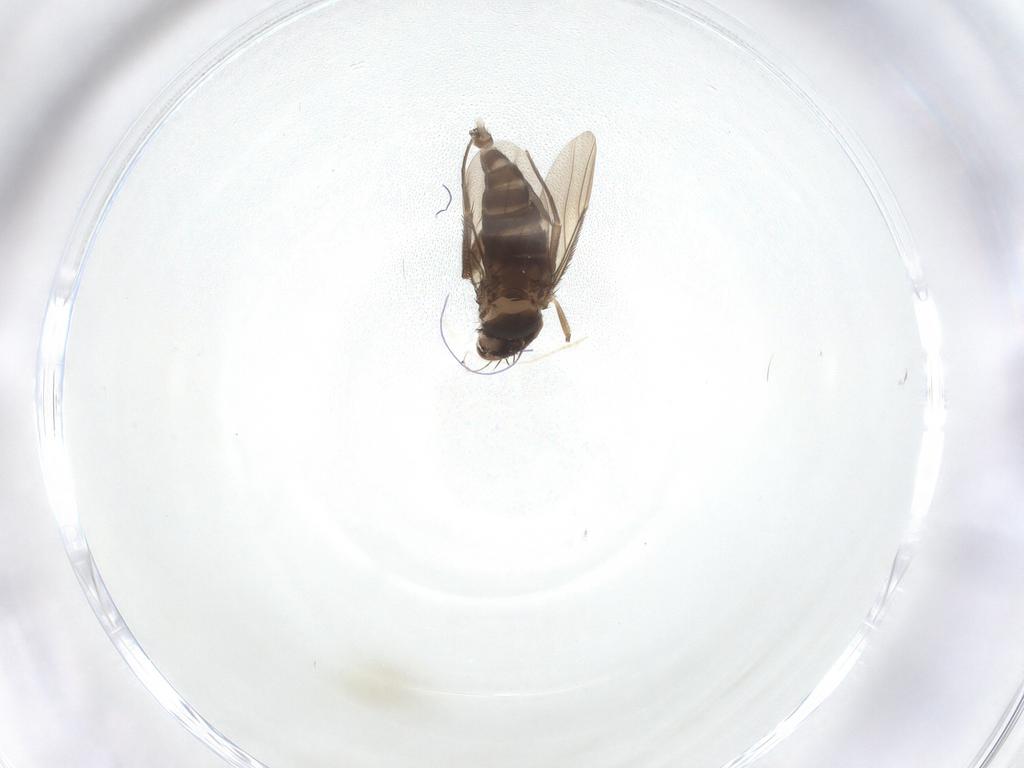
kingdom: Animalia
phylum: Arthropoda
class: Insecta
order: Diptera
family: Phoridae
